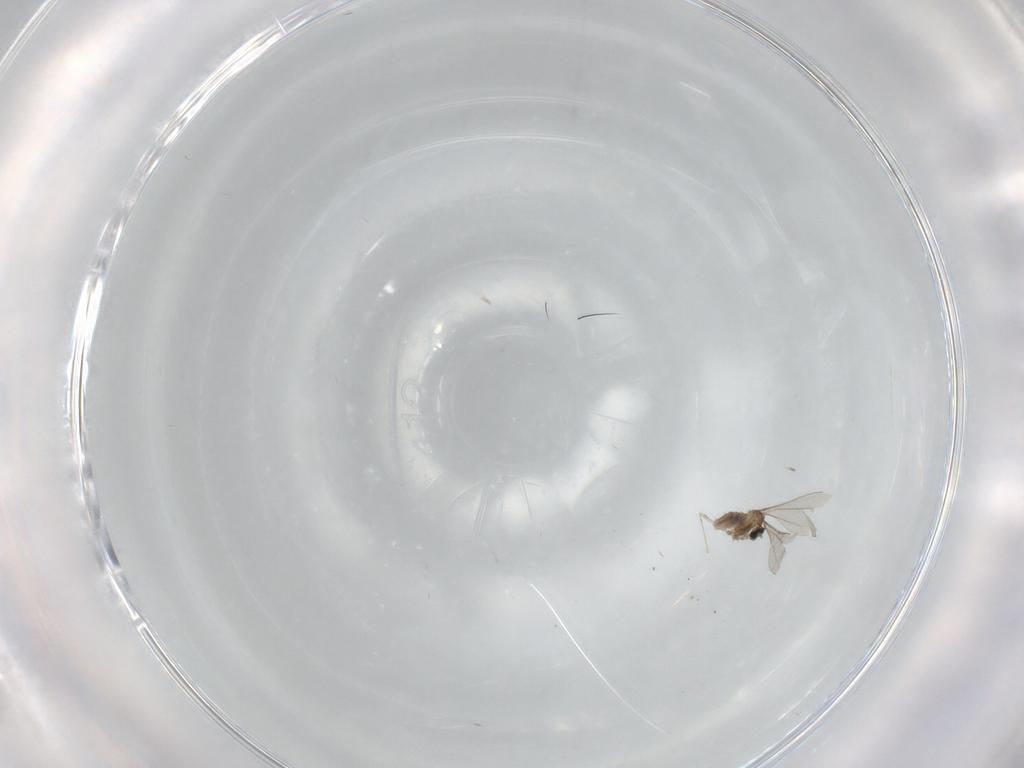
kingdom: Animalia
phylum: Arthropoda
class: Insecta
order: Diptera
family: Cecidomyiidae
